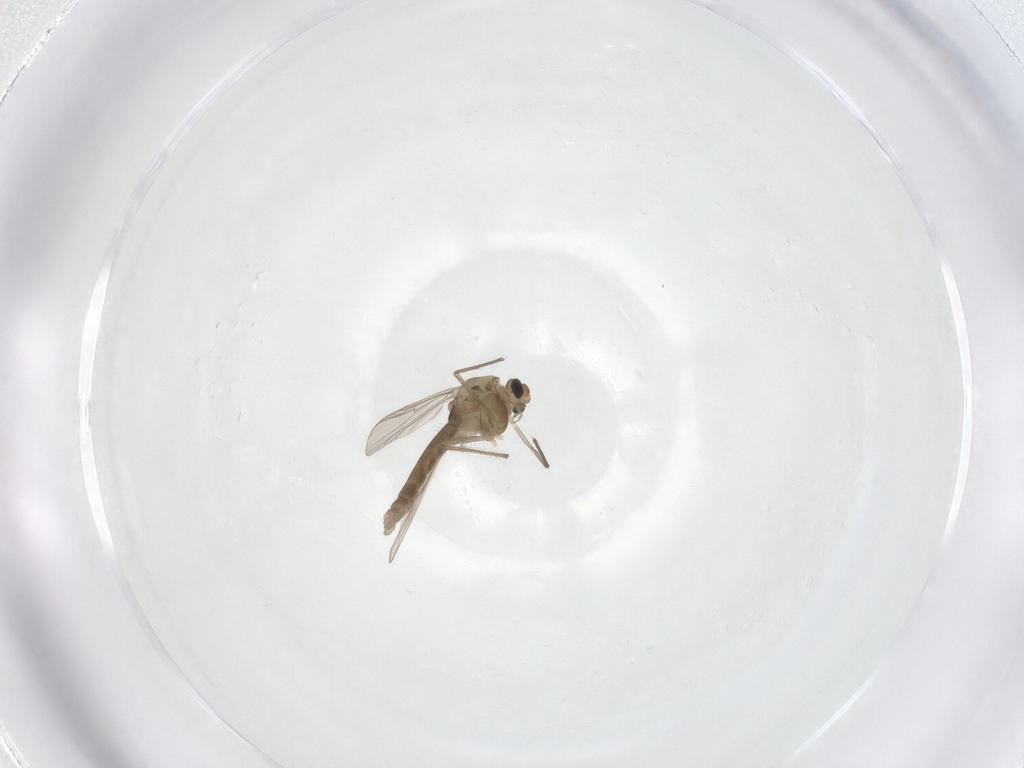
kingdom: Animalia
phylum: Arthropoda
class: Insecta
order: Diptera
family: Chironomidae
